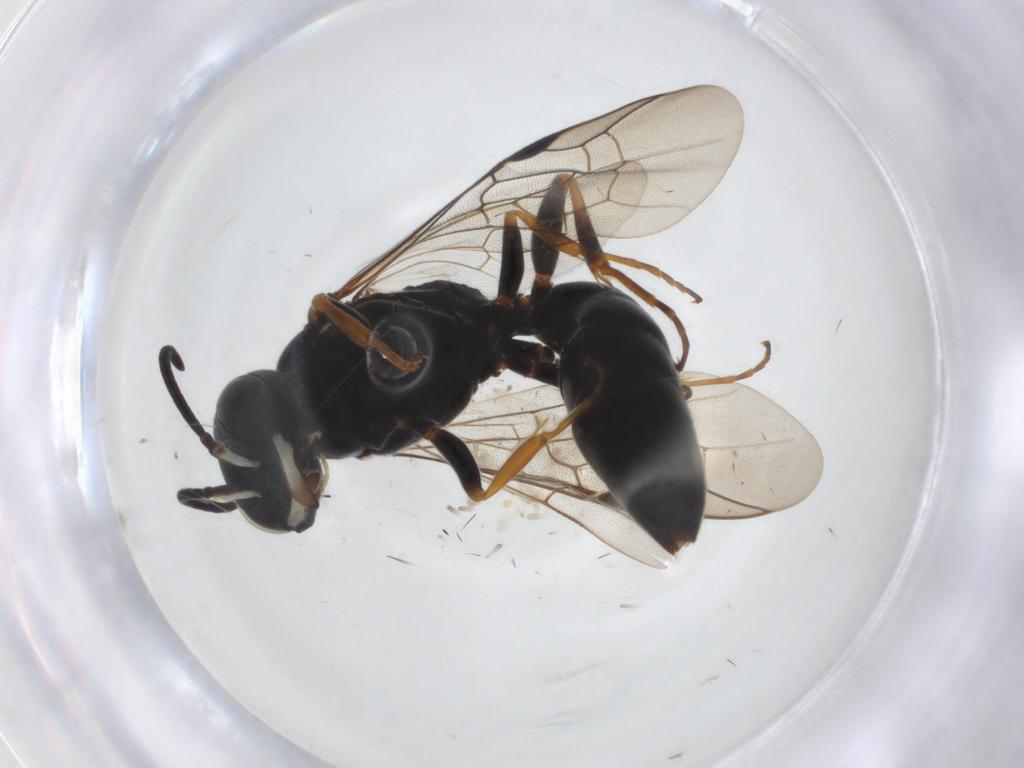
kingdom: Animalia
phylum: Arthropoda
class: Insecta
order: Hymenoptera
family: Crabronidae
